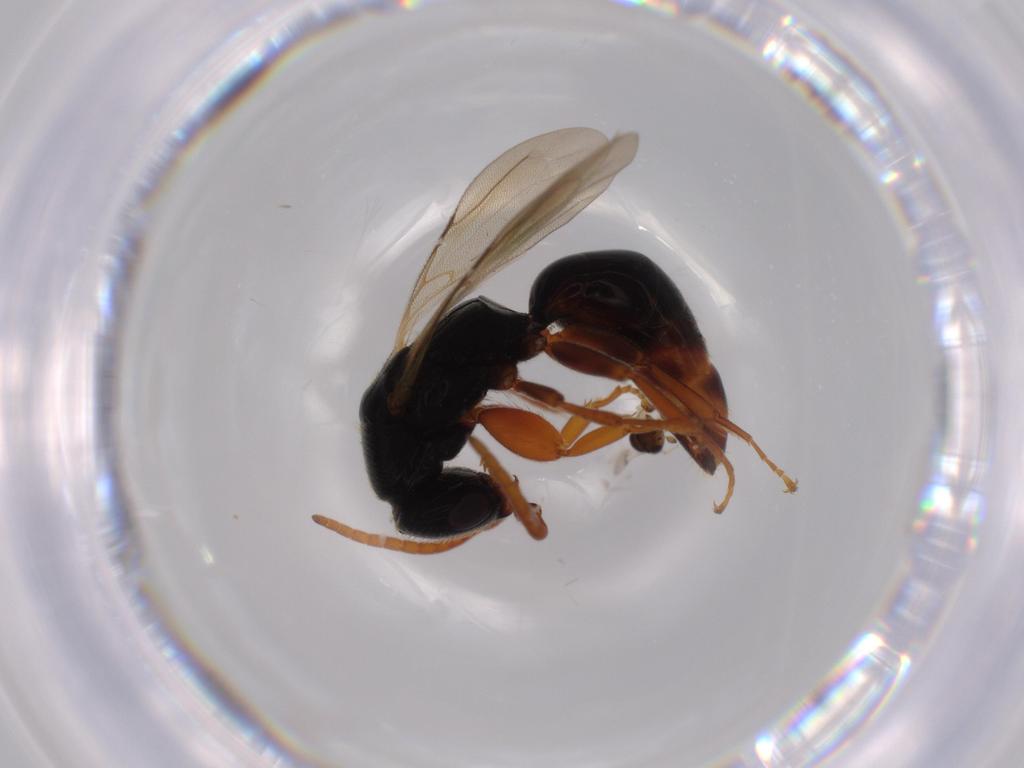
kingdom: Animalia
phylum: Arthropoda
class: Insecta
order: Hymenoptera
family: Bethylidae
